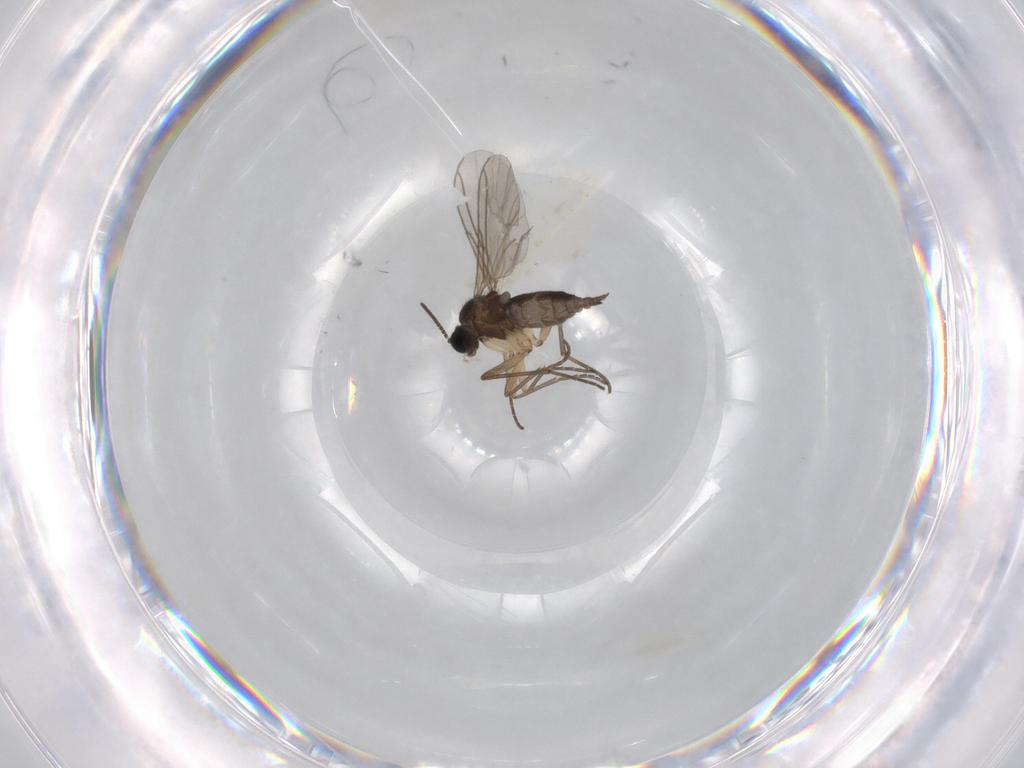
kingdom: Animalia
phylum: Arthropoda
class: Insecta
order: Diptera
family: Sciaridae
